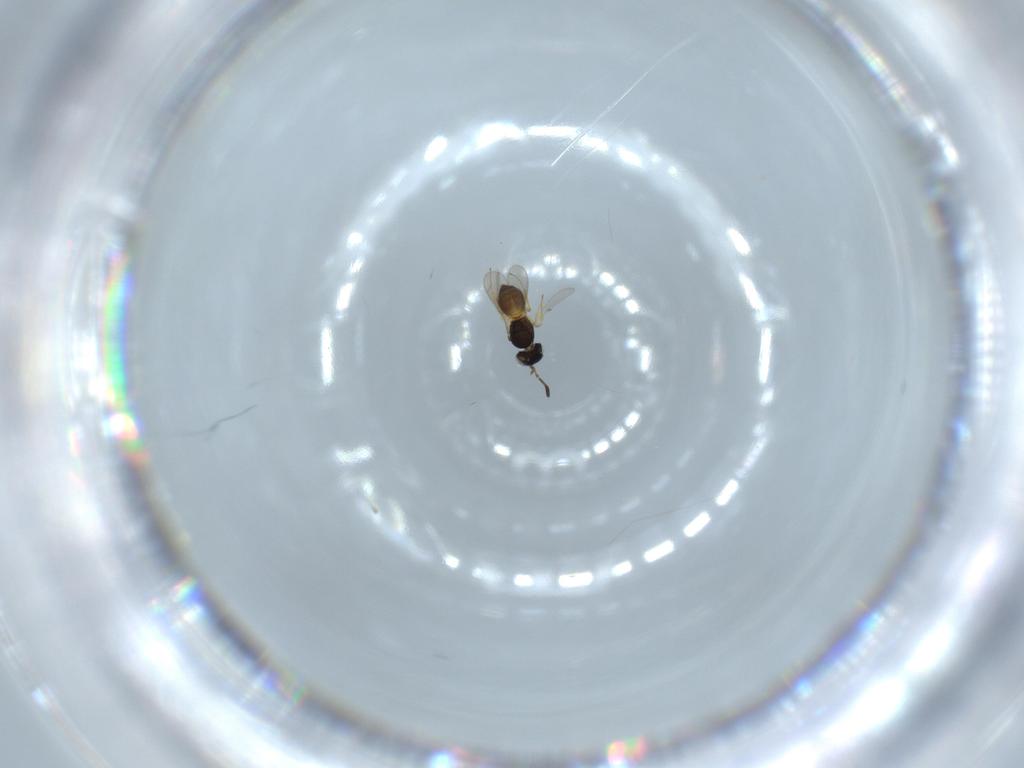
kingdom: Animalia
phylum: Arthropoda
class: Insecta
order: Hymenoptera
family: Scelionidae
